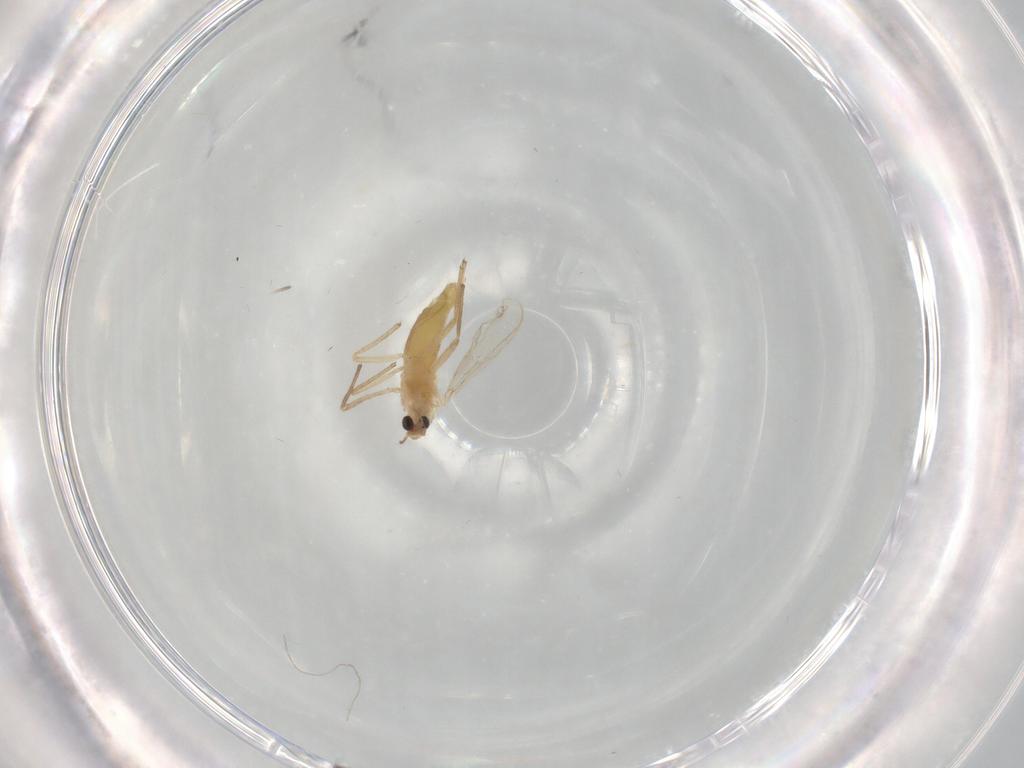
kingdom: Animalia
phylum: Arthropoda
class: Insecta
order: Diptera
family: Chironomidae
